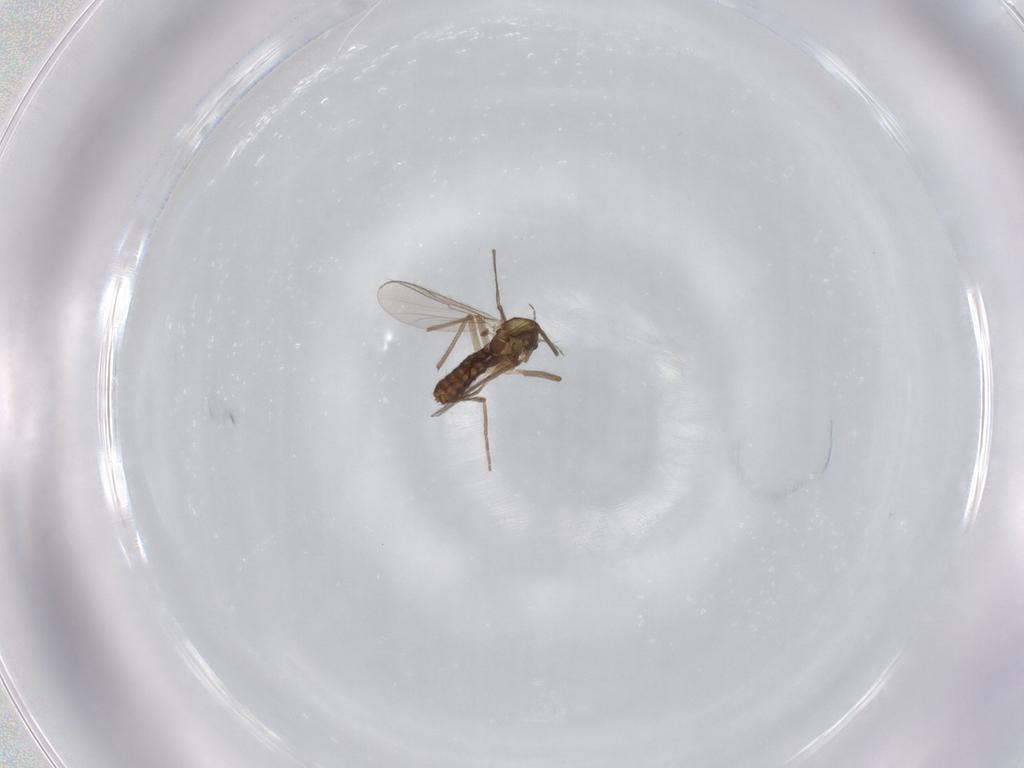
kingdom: Animalia
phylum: Arthropoda
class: Insecta
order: Diptera
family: Chironomidae
